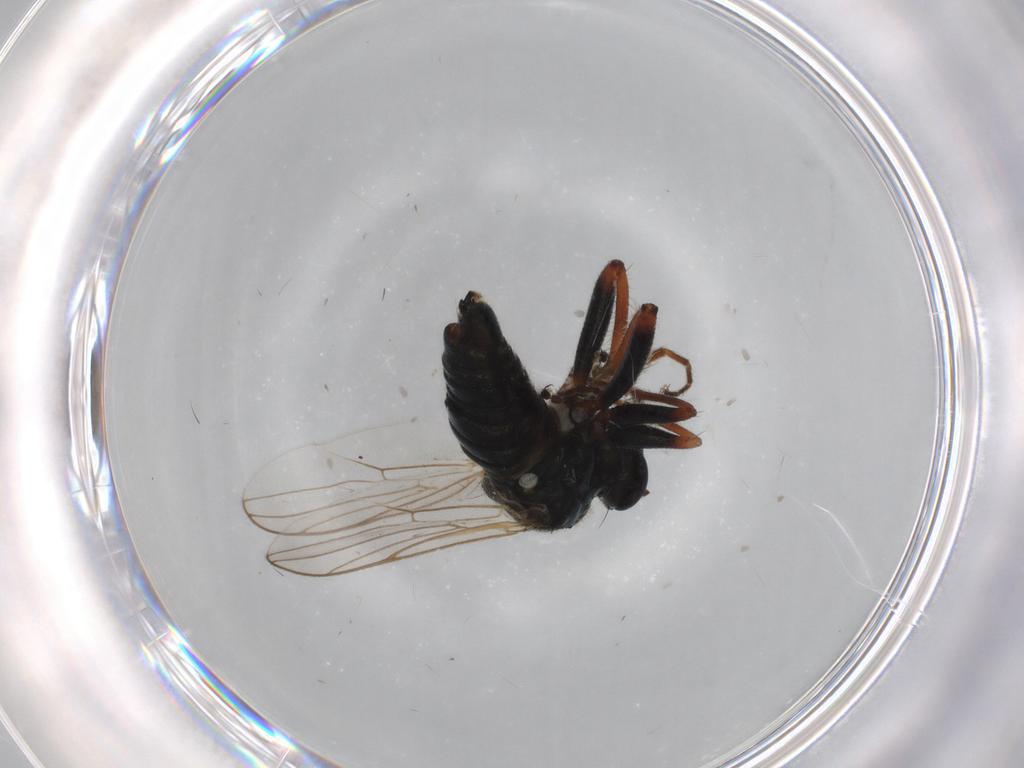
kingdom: Animalia
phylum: Arthropoda
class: Insecta
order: Diptera
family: Hybotidae
